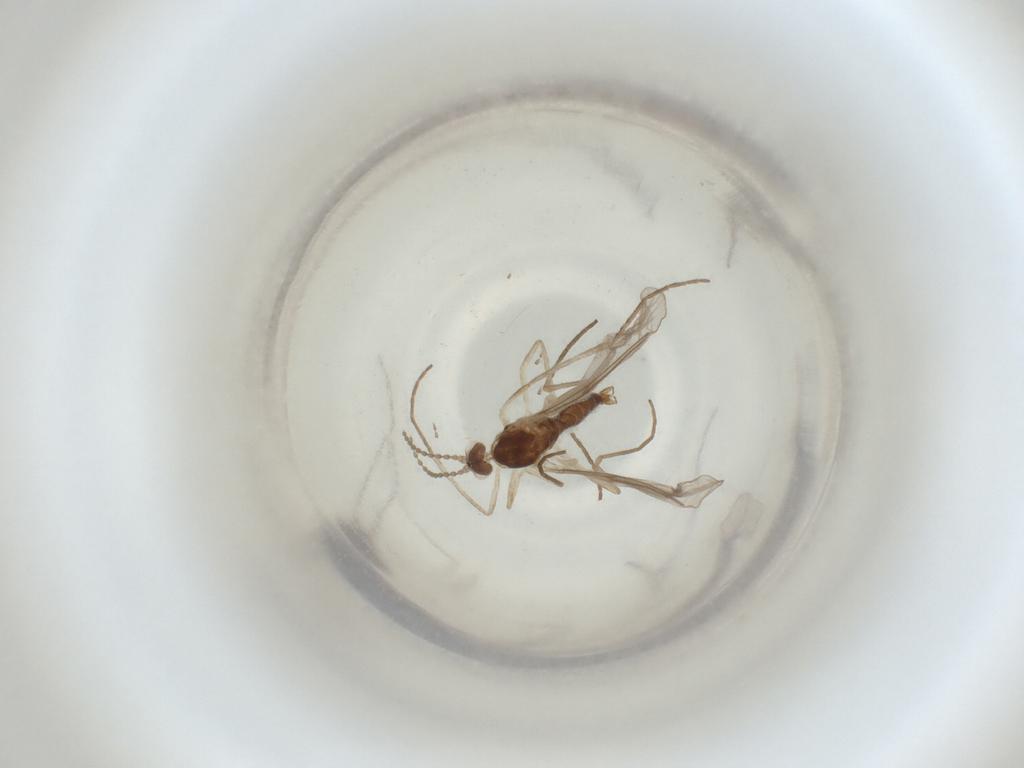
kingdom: Animalia
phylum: Arthropoda
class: Insecta
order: Diptera
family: Cecidomyiidae
